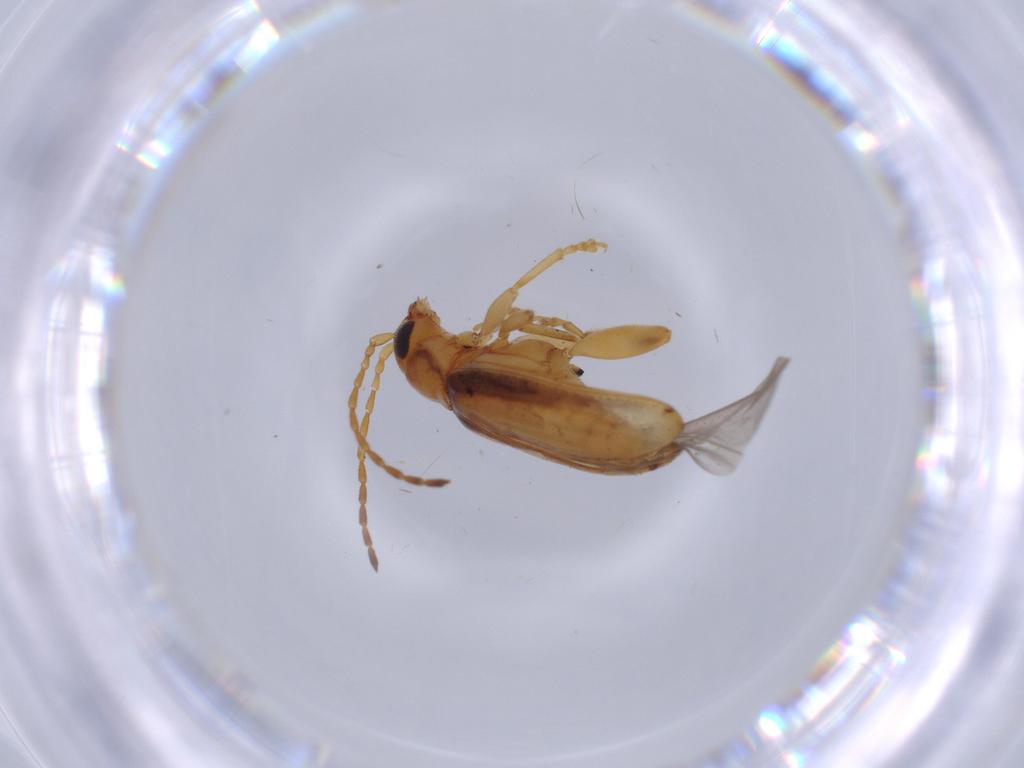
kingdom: Animalia
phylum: Arthropoda
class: Insecta
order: Coleoptera
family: Chrysomelidae
